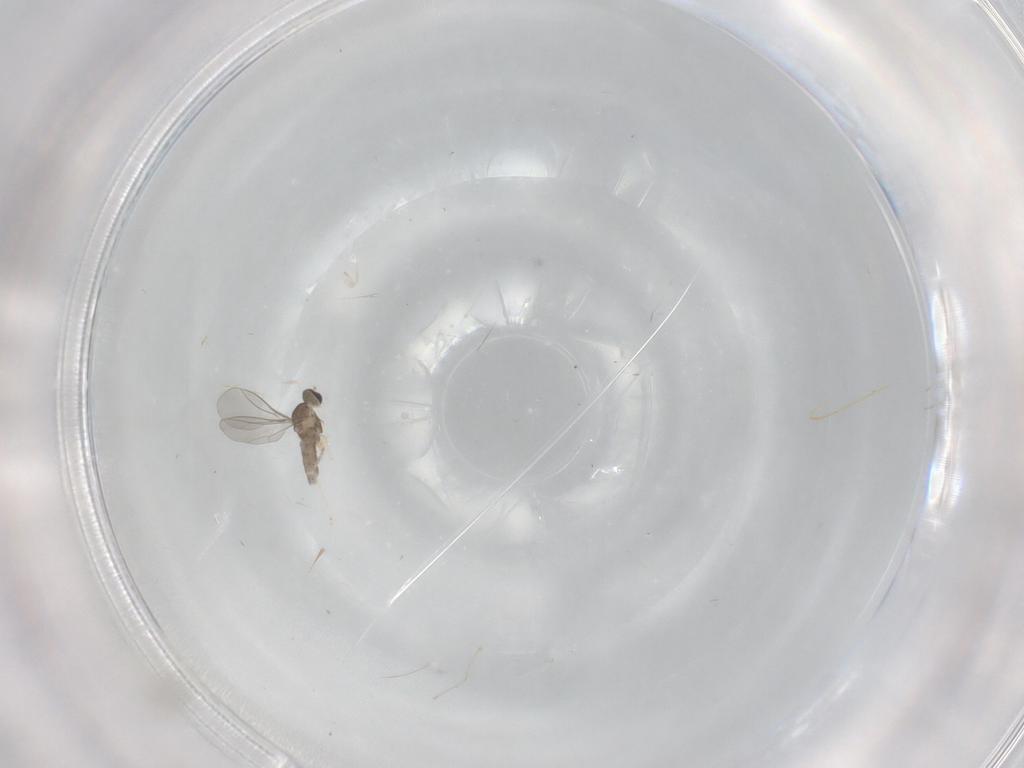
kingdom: Animalia
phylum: Arthropoda
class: Insecta
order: Diptera
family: Cecidomyiidae
